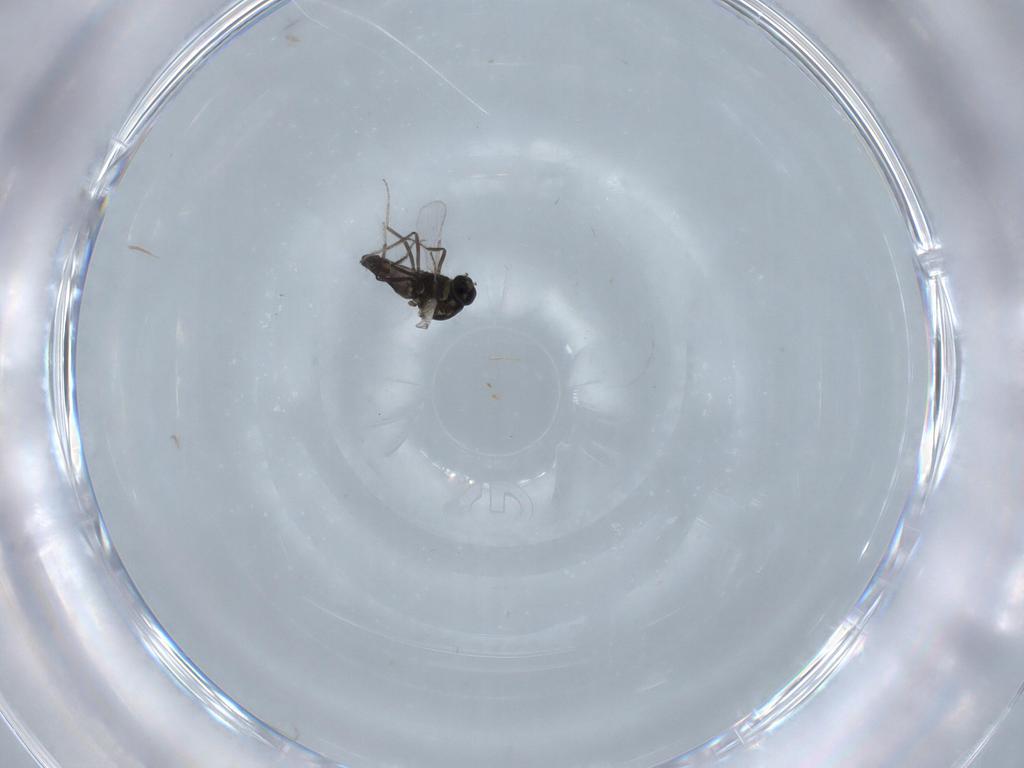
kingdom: Animalia
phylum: Arthropoda
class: Insecta
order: Diptera
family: Ceratopogonidae
